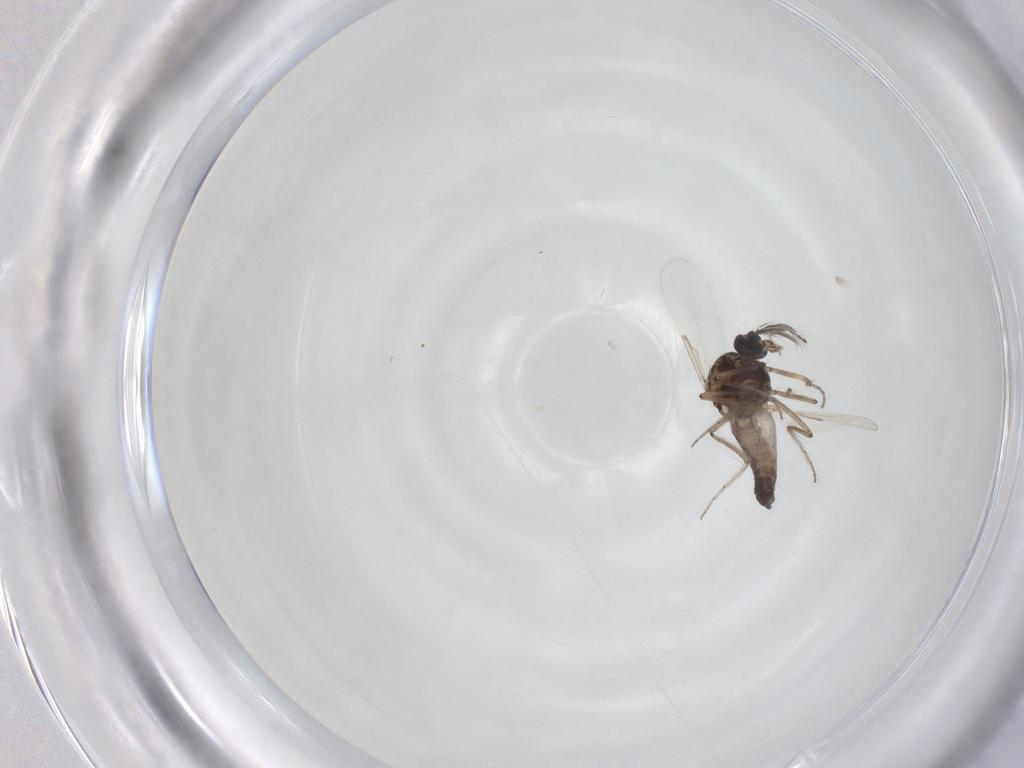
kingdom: Animalia
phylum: Arthropoda
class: Insecta
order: Diptera
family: Ceratopogonidae
